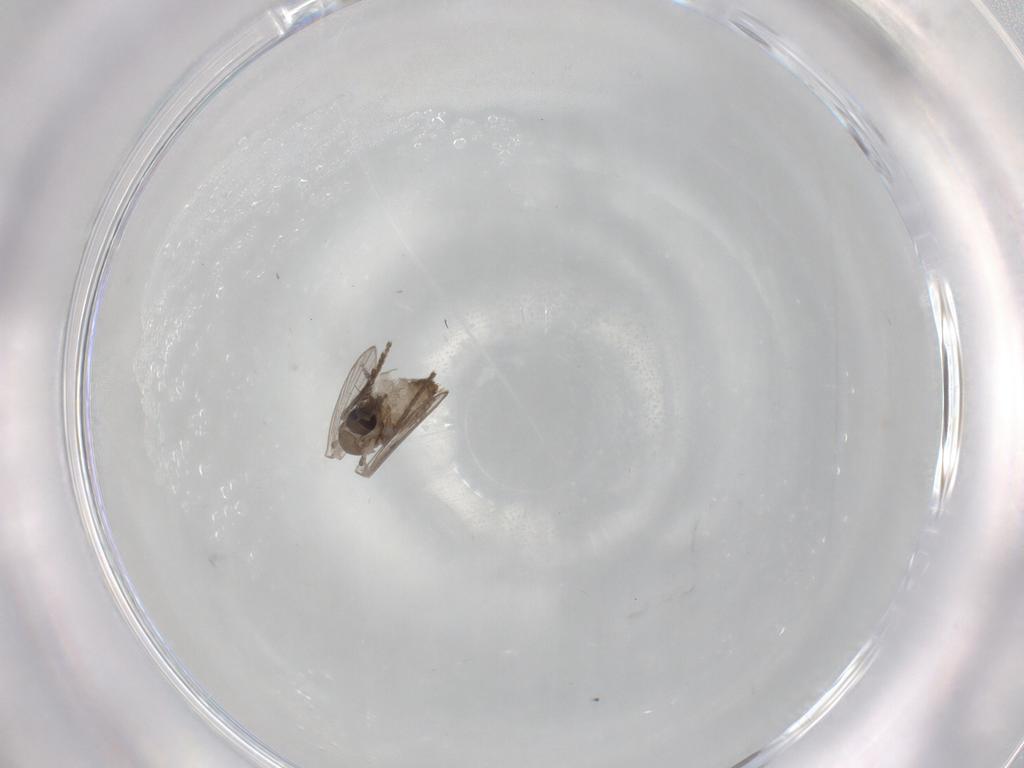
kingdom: Animalia
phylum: Arthropoda
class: Insecta
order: Diptera
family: Psychodidae
